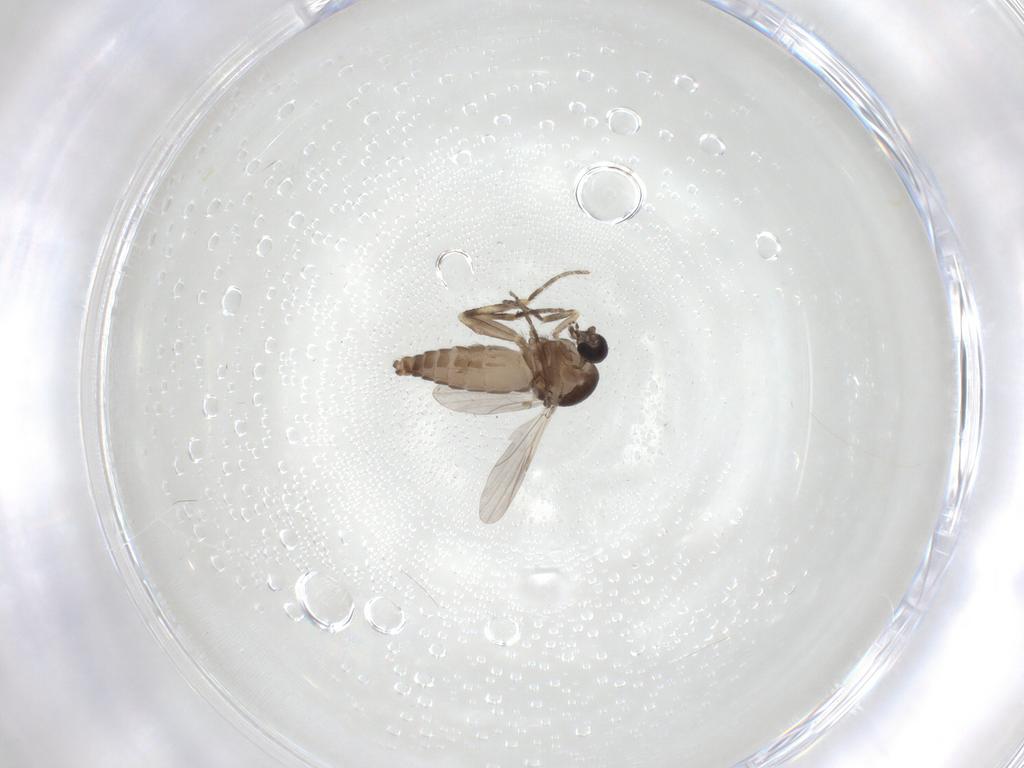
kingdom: Animalia
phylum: Arthropoda
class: Insecta
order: Diptera
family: Ceratopogonidae
